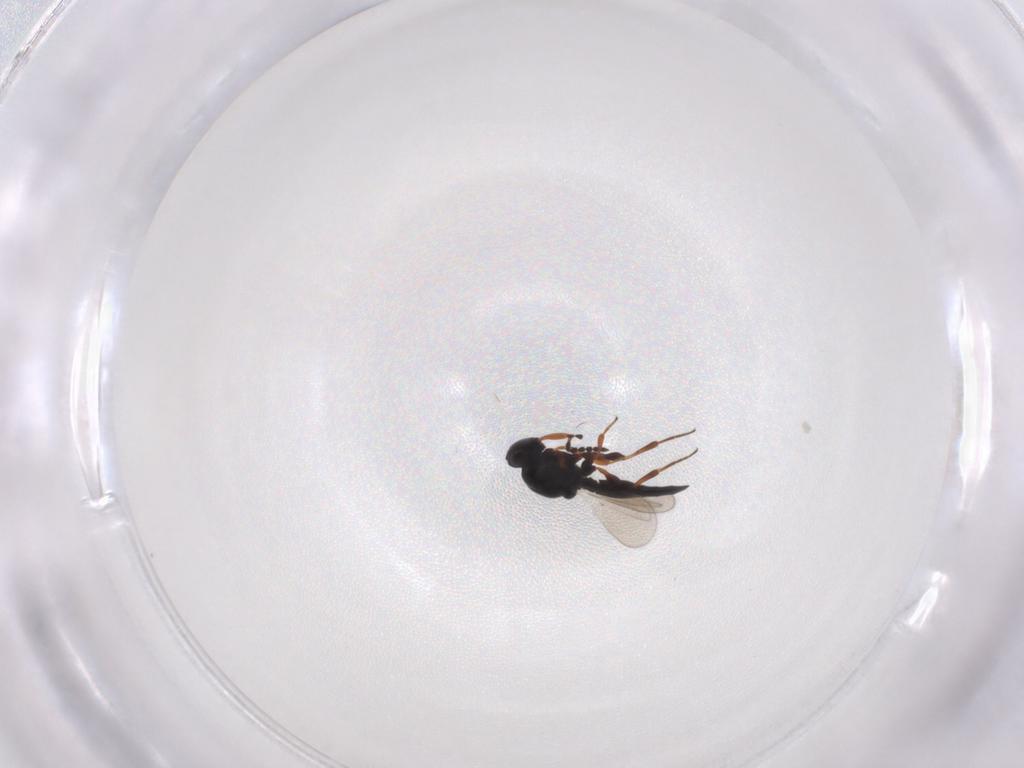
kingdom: Animalia
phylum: Arthropoda
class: Insecta
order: Hymenoptera
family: Platygastridae
